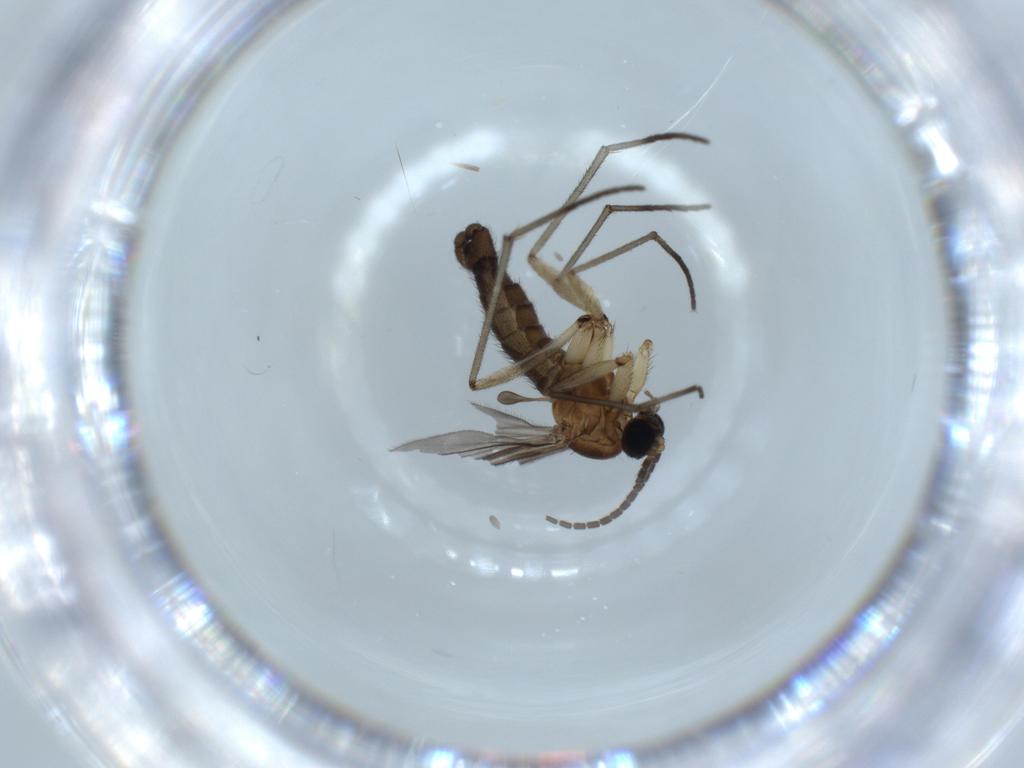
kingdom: Animalia
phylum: Arthropoda
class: Insecta
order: Diptera
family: Sciaridae
